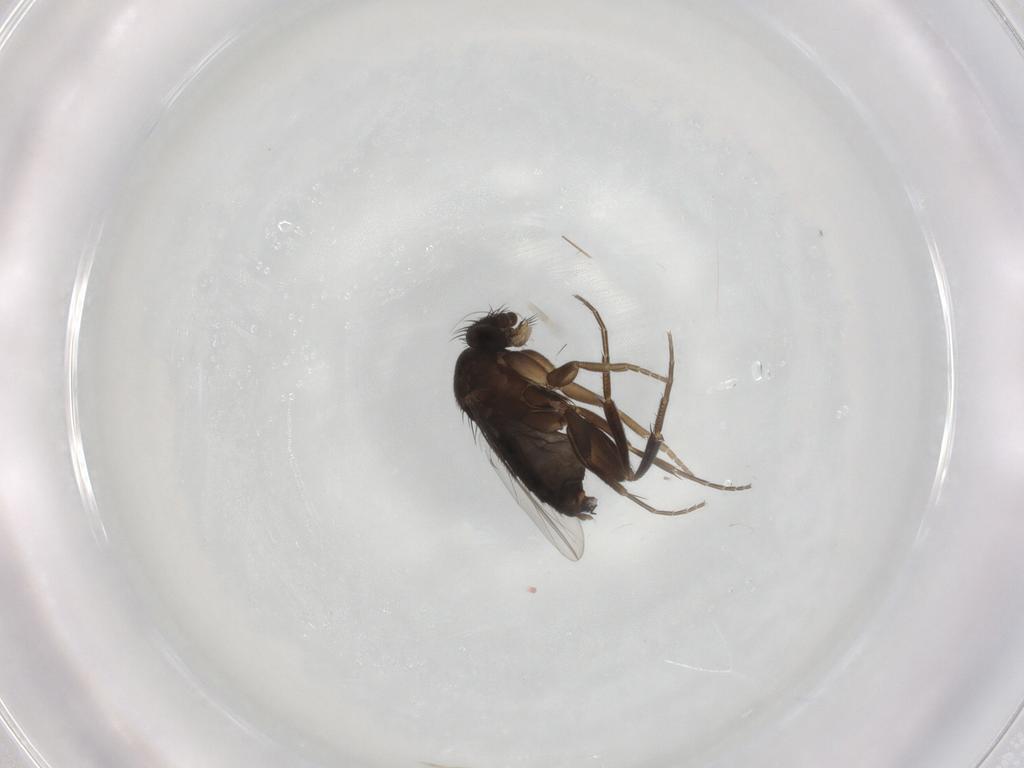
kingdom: Animalia
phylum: Arthropoda
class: Insecta
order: Diptera
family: Phoridae
